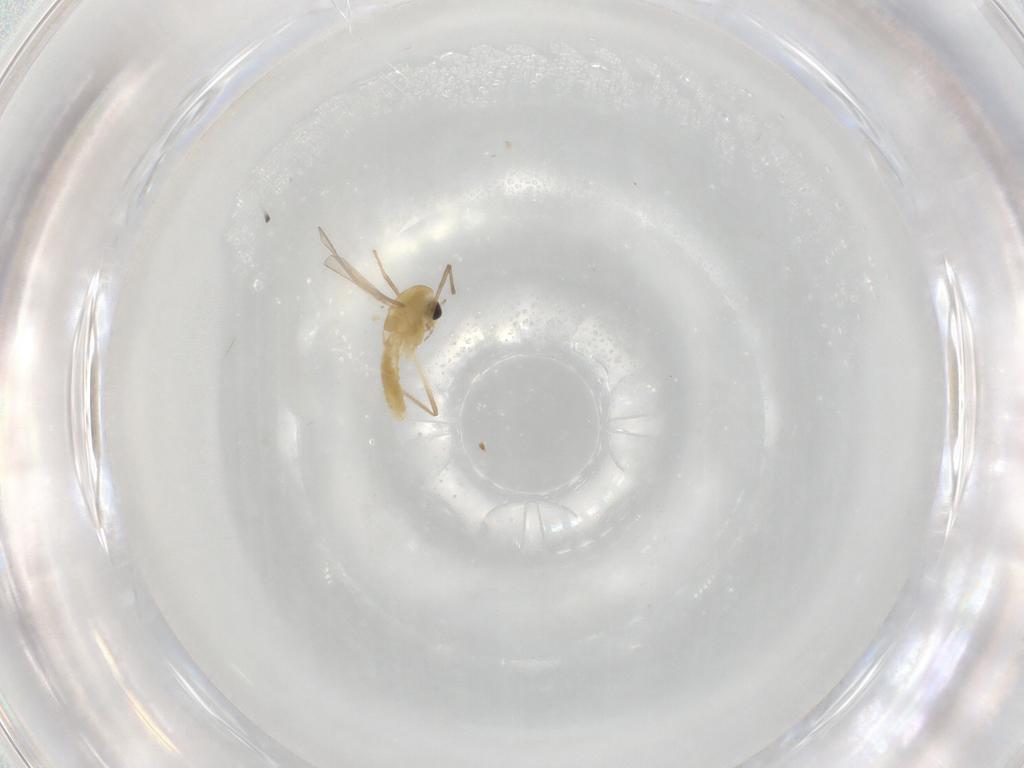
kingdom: Animalia
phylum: Arthropoda
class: Insecta
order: Diptera
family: Chironomidae
